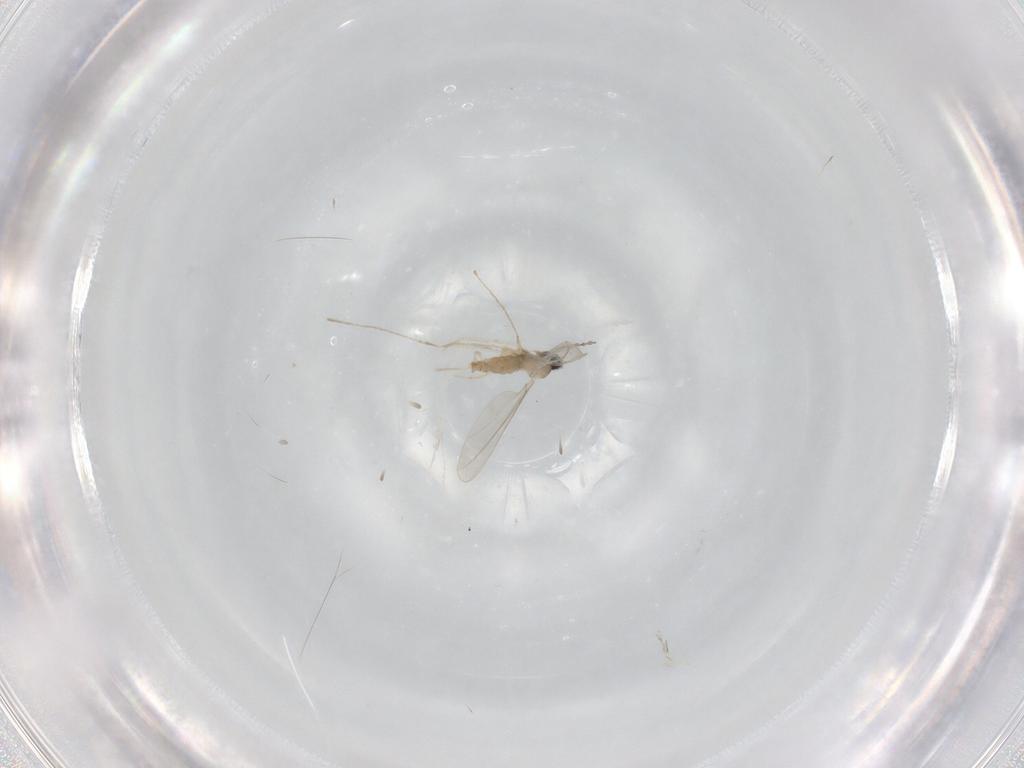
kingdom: Animalia
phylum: Arthropoda
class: Insecta
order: Diptera
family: Cecidomyiidae
